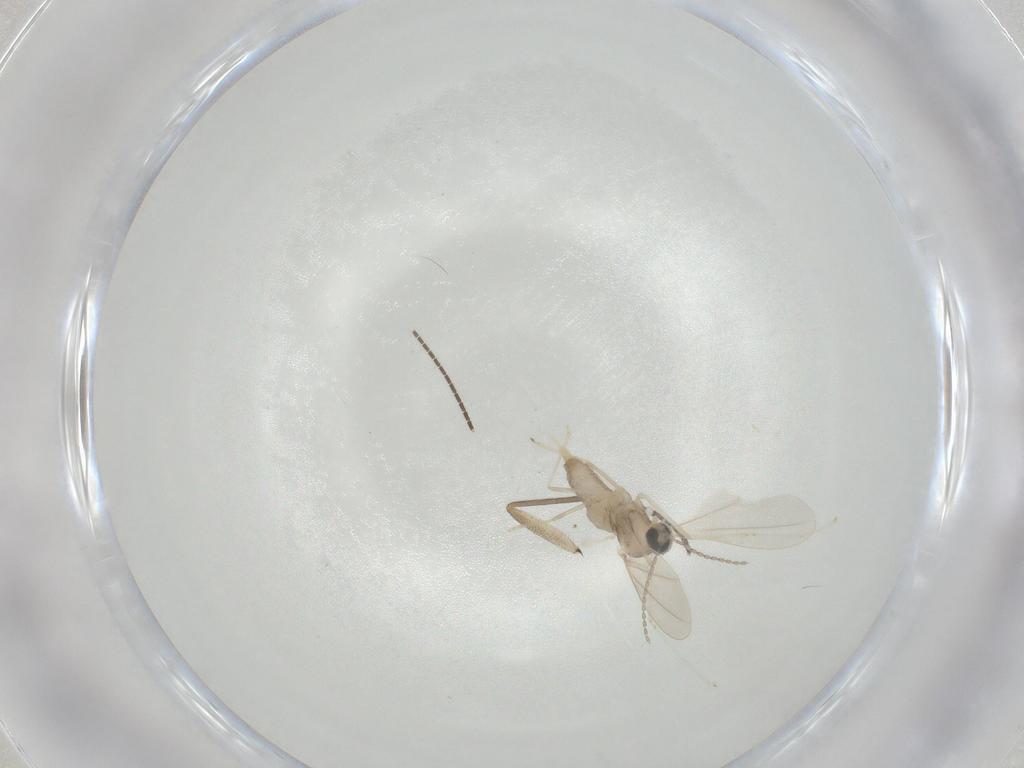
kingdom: Animalia
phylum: Arthropoda
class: Insecta
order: Diptera
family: Cecidomyiidae
